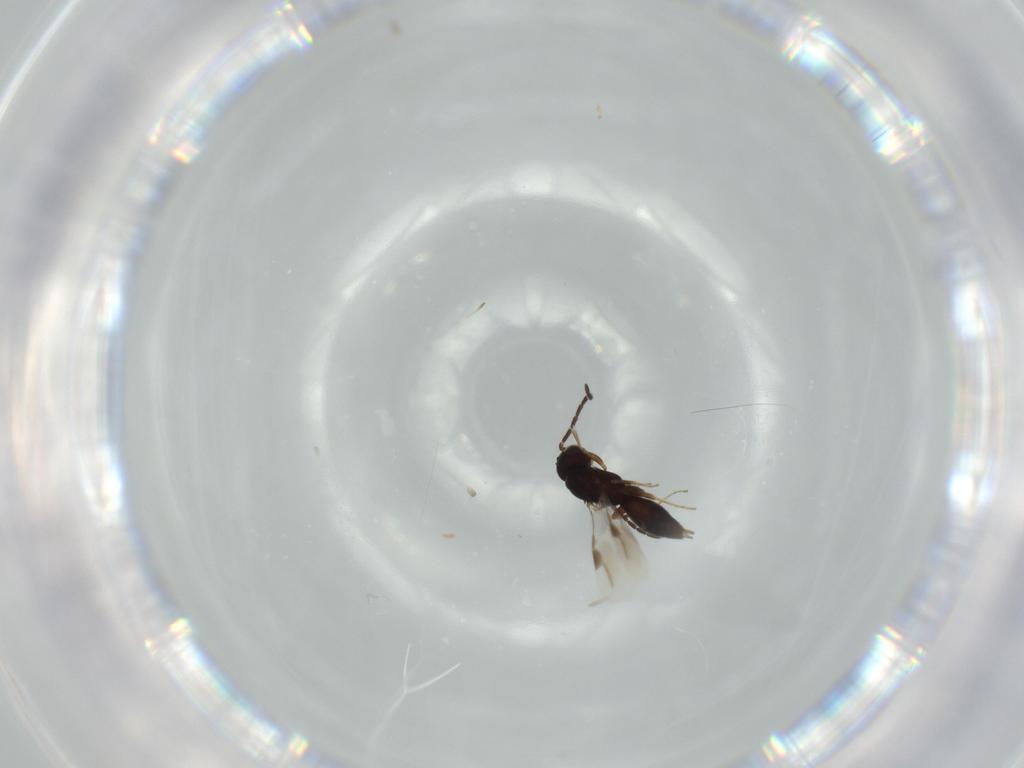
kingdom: Animalia
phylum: Arthropoda
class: Insecta
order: Hymenoptera
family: Megaspilidae
